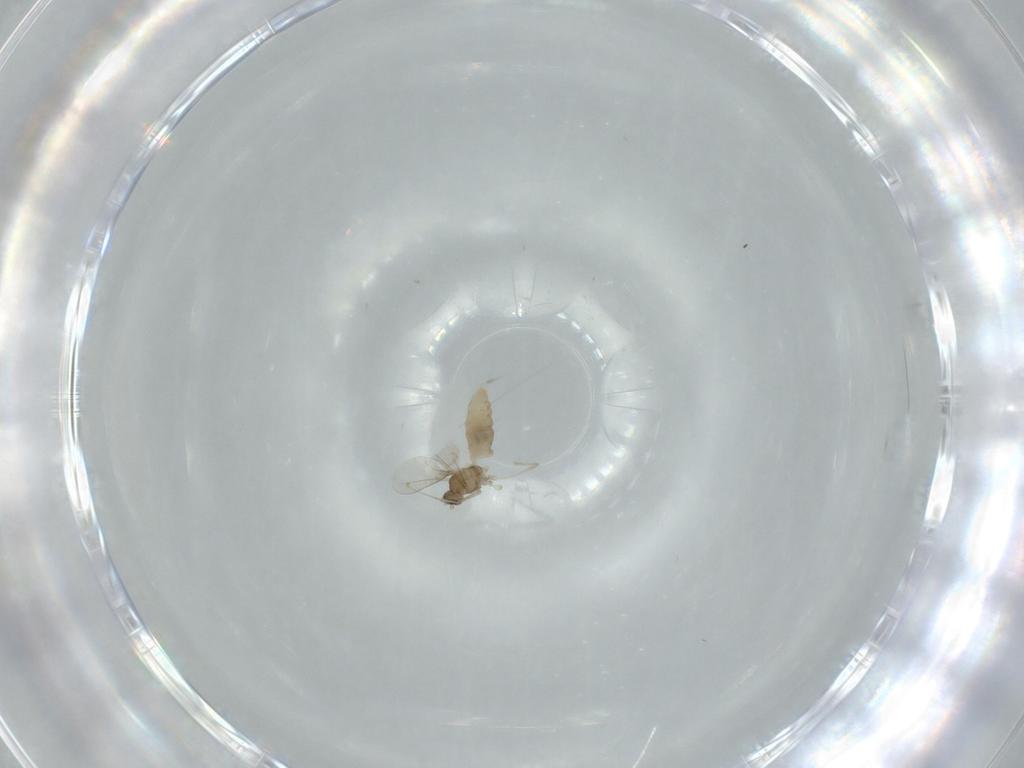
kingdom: Animalia
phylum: Arthropoda
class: Insecta
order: Diptera
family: Cecidomyiidae
